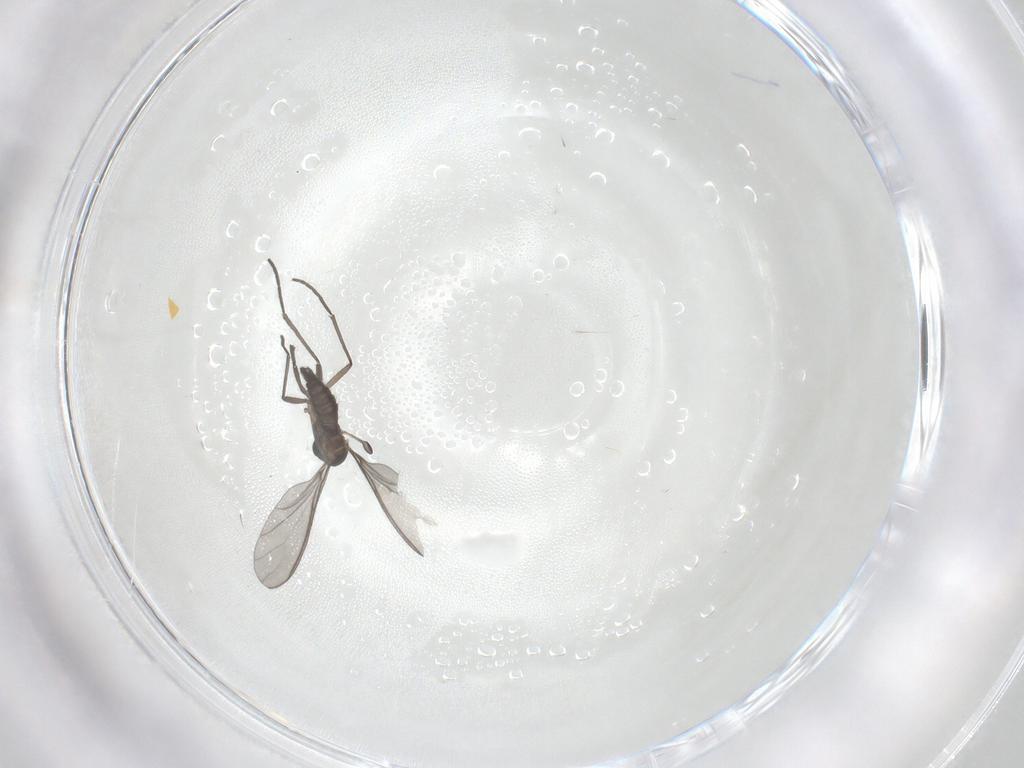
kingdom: Animalia
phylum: Arthropoda
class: Insecta
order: Diptera
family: Sciaridae
